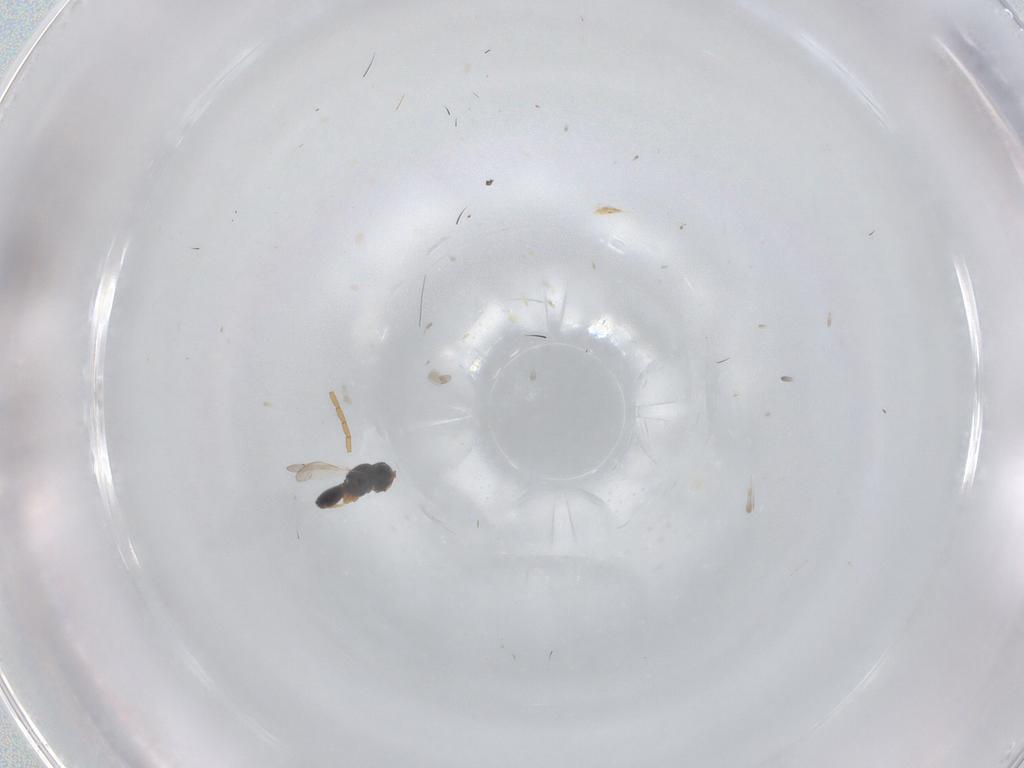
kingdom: Animalia
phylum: Arthropoda
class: Insecta
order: Hymenoptera
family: Scelionidae
